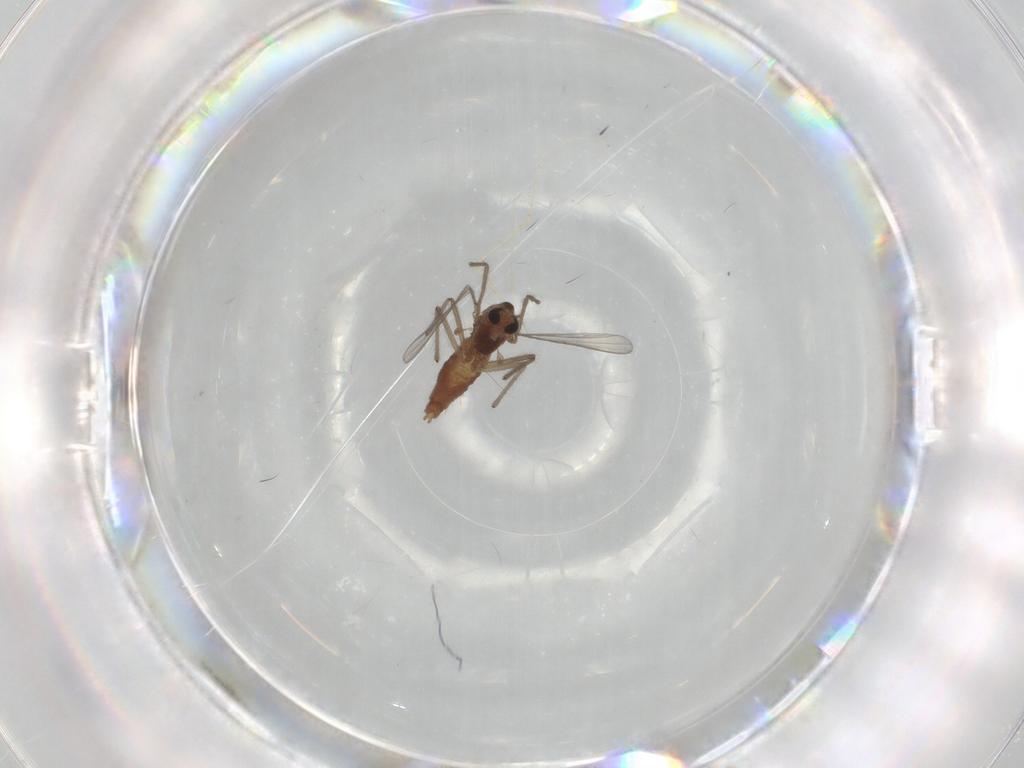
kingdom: Animalia
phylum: Arthropoda
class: Insecta
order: Diptera
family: Chironomidae
